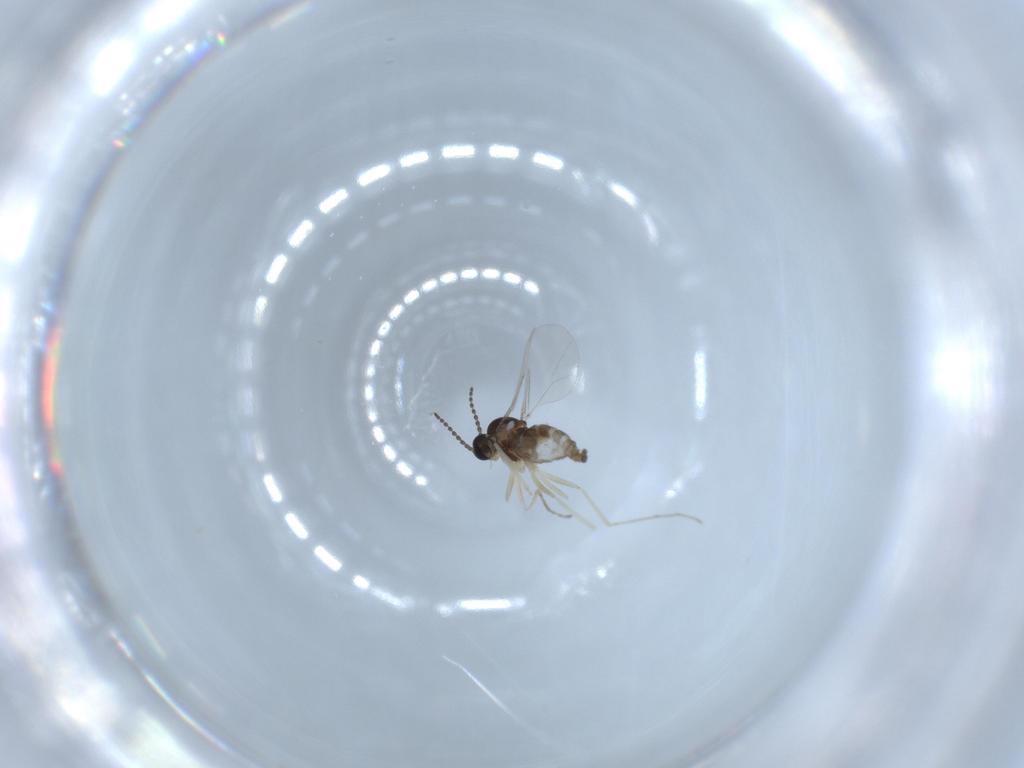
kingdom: Animalia
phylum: Arthropoda
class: Insecta
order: Diptera
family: Cecidomyiidae
